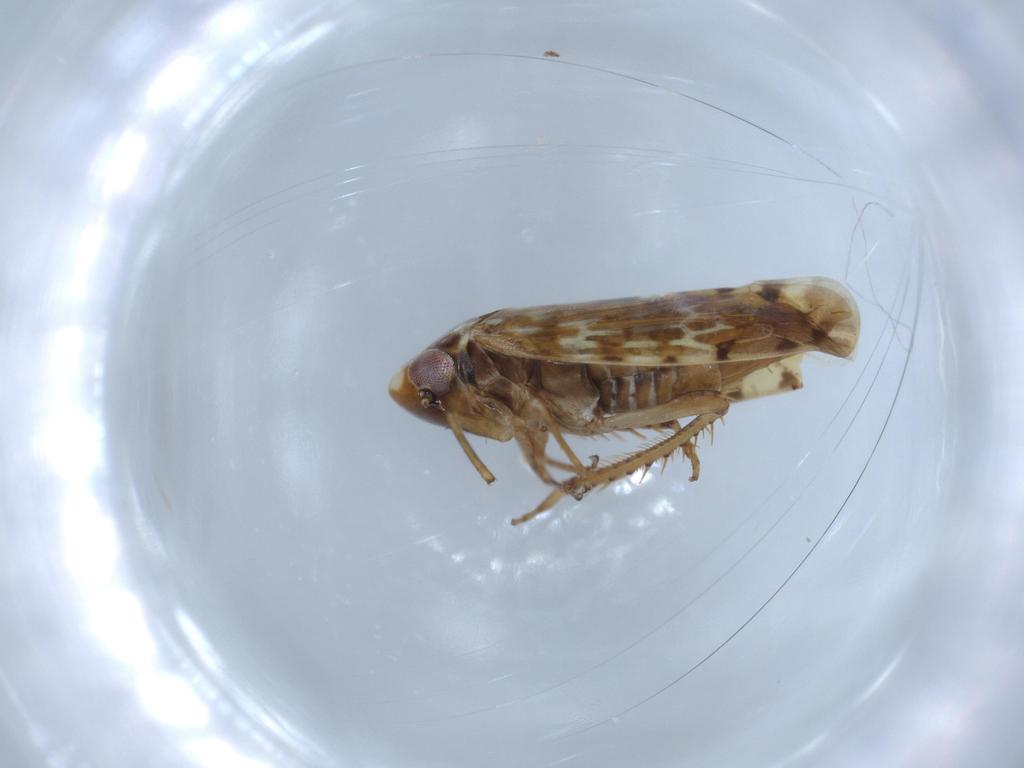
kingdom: Animalia
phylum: Arthropoda
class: Insecta
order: Hemiptera
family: Cicadellidae
